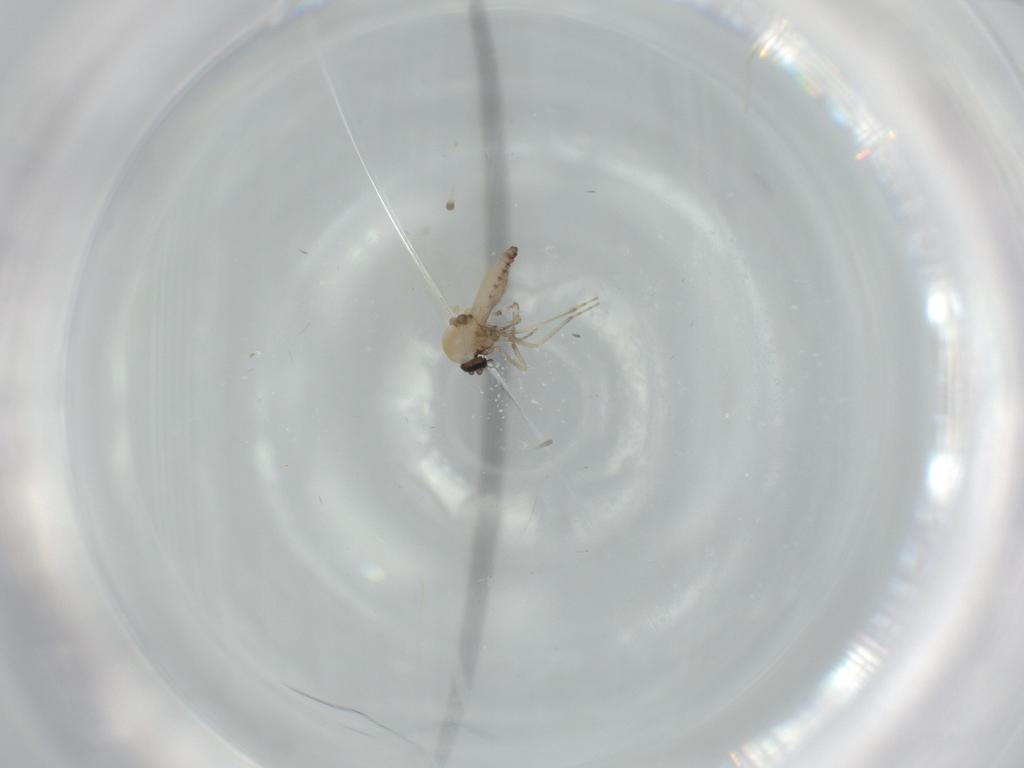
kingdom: Animalia
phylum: Arthropoda
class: Insecta
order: Diptera
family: Ceratopogonidae
